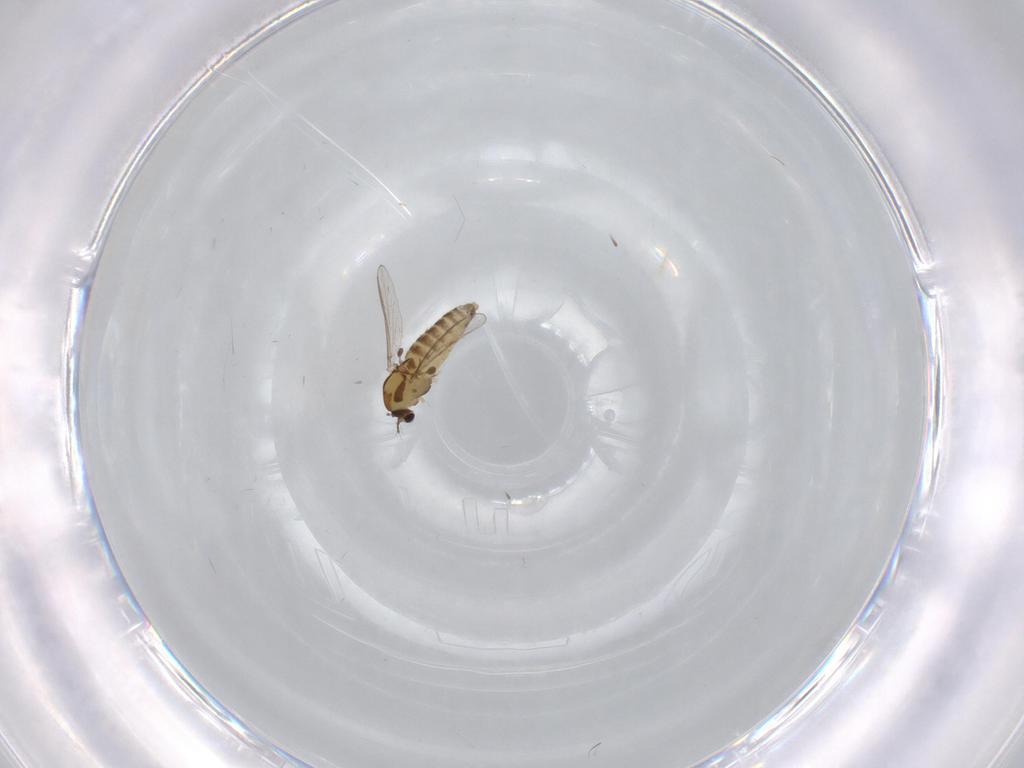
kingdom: Animalia
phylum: Arthropoda
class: Insecta
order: Diptera
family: Chironomidae
